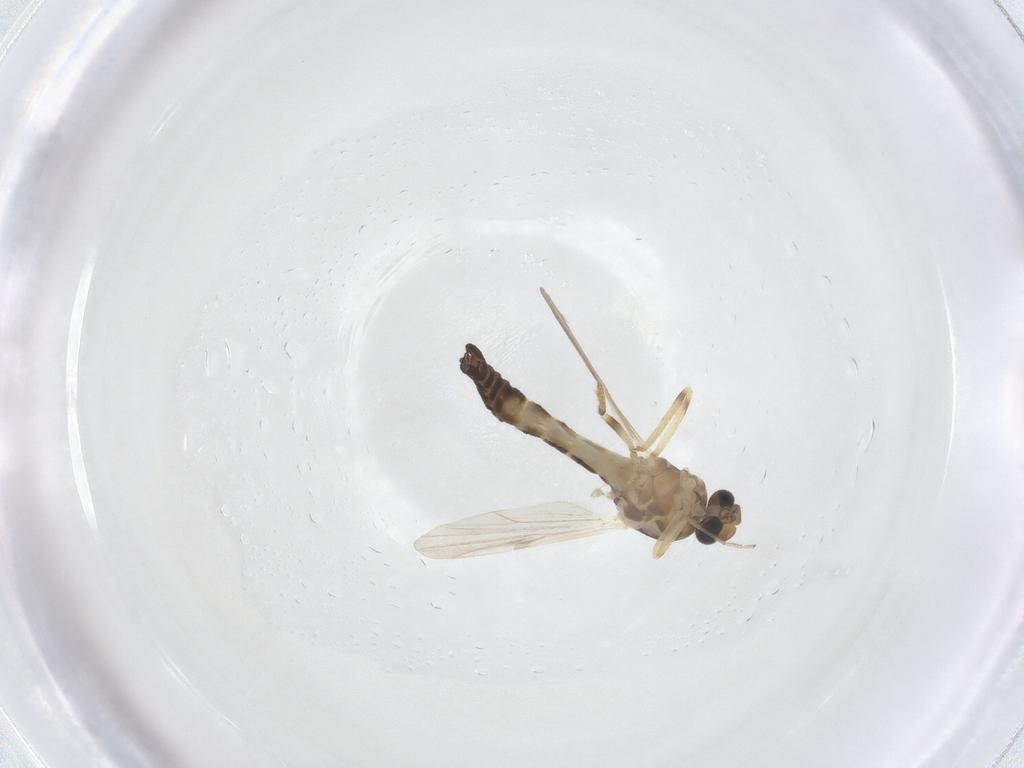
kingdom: Animalia
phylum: Arthropoda
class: Insecta
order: Diptera
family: Ceratopogonidae
